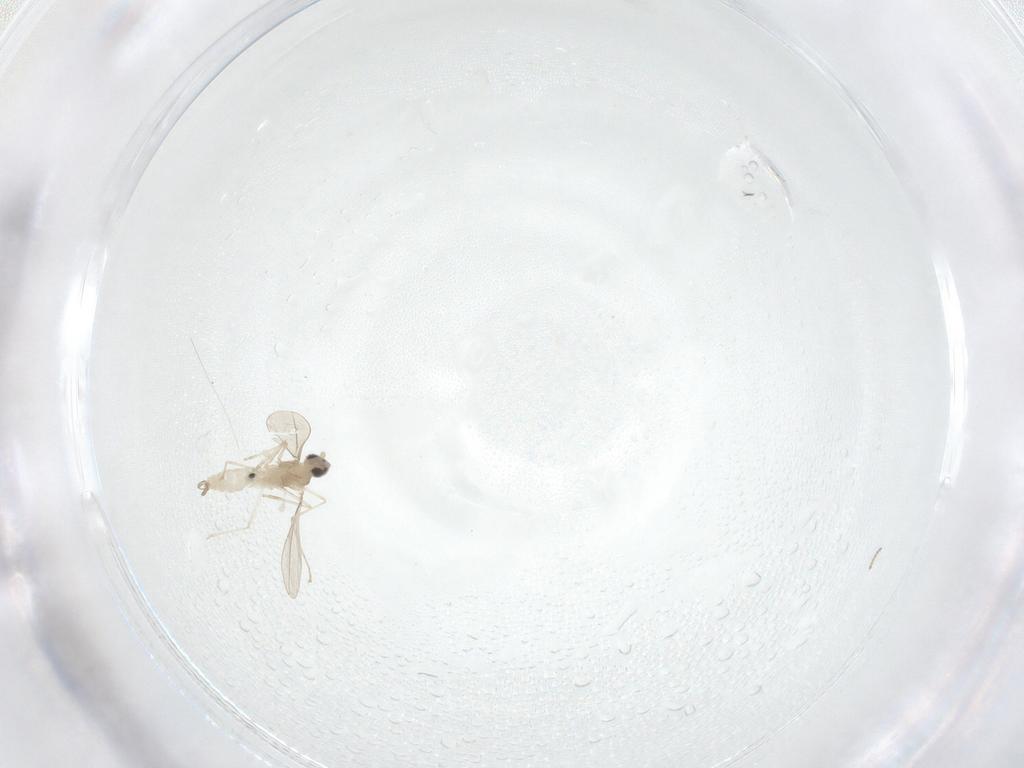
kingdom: Animalia
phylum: Arthropoda
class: Insecta
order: Diptera
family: Cecidomyiidae
